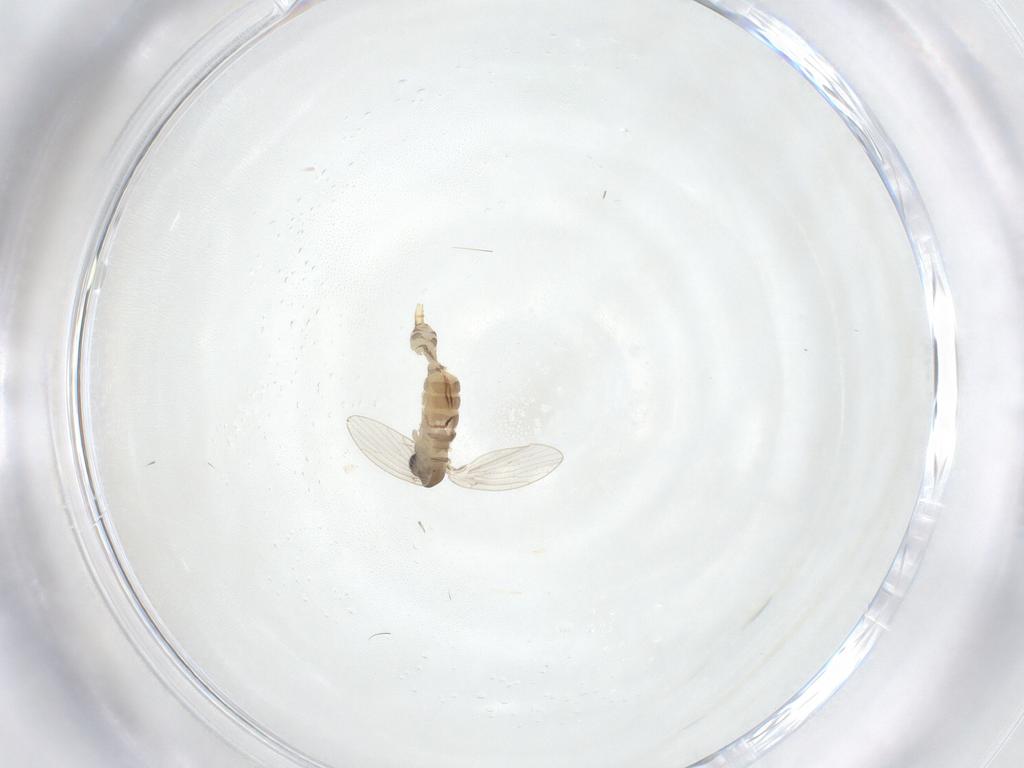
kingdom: Animalia
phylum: Arthropoda
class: Insecta
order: Diptera
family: Psychodidae
